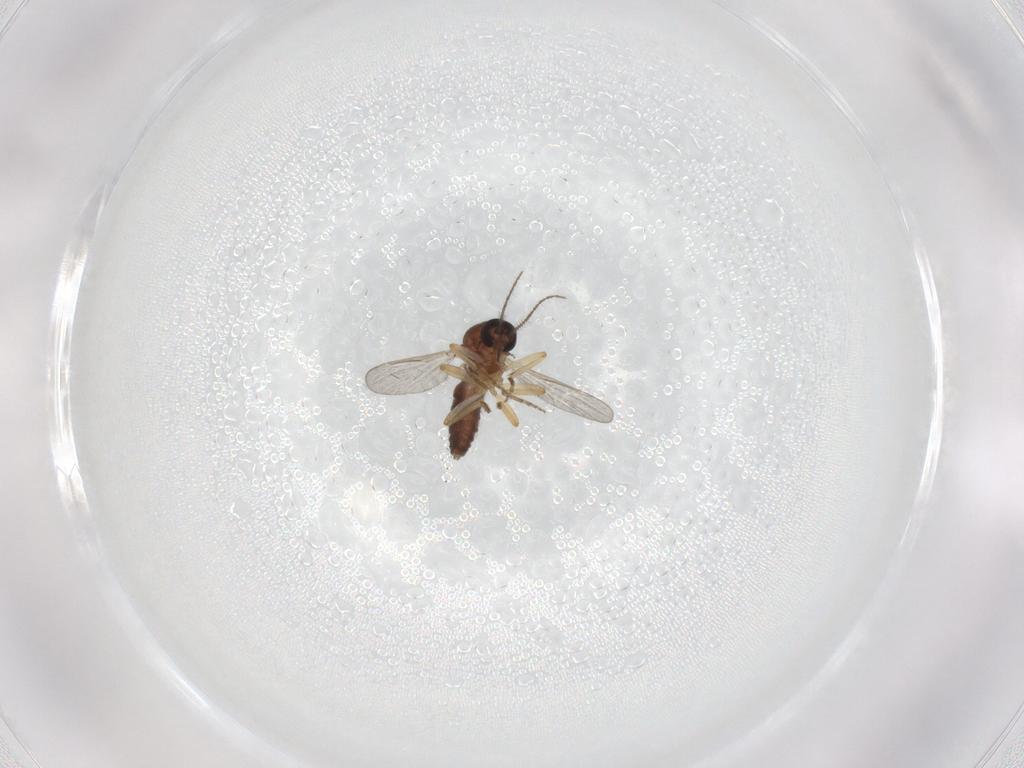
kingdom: Animalia
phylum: Arthropoda
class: Insecta
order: Diptera
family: Ceratopogonidae
